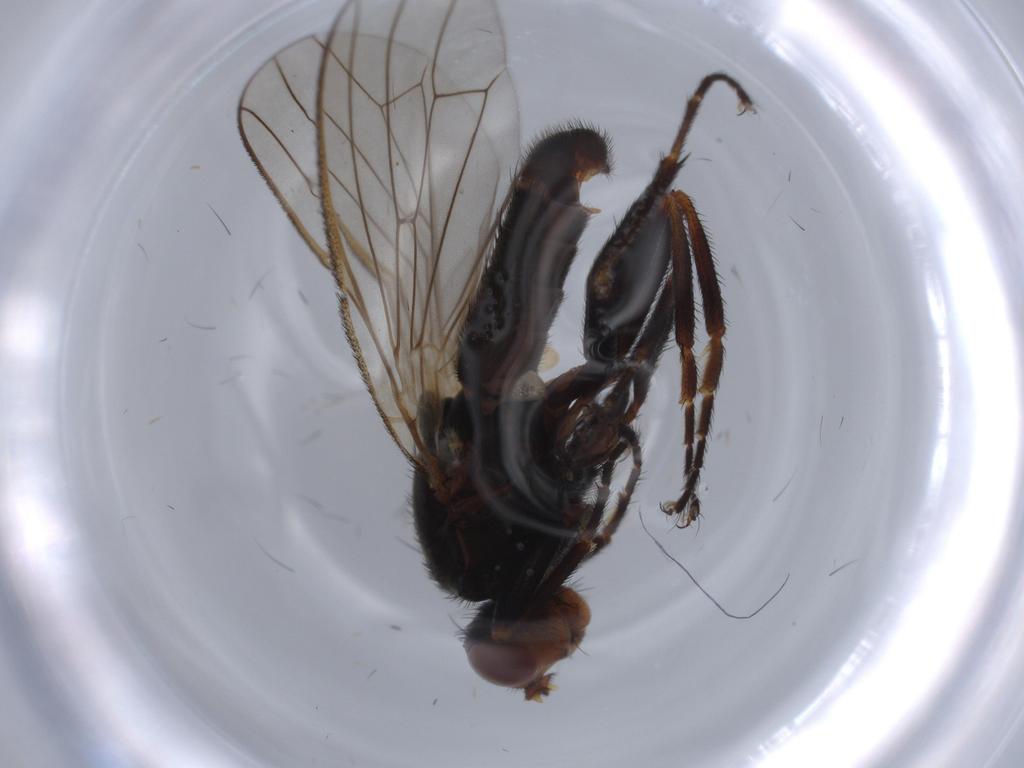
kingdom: Animalia
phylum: Arthropoda
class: Insecta
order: Diptera
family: Heleomyzidae
